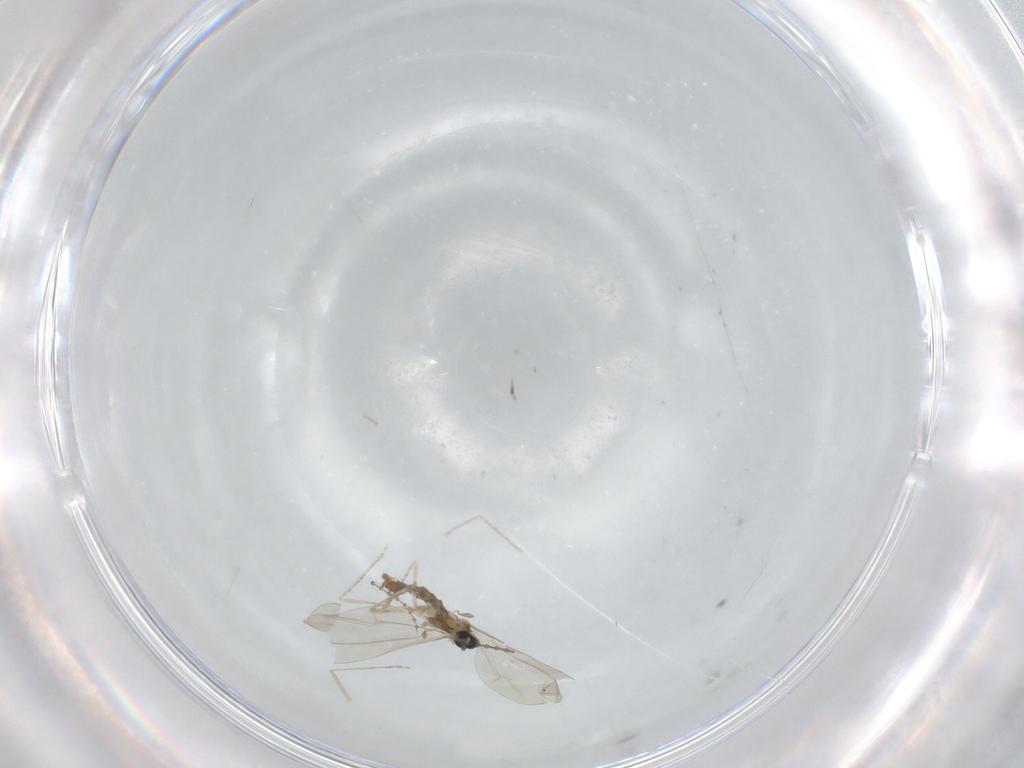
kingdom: Animalia
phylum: Arthropoda
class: Insecta
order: Diptera
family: Cecidomyiidae
